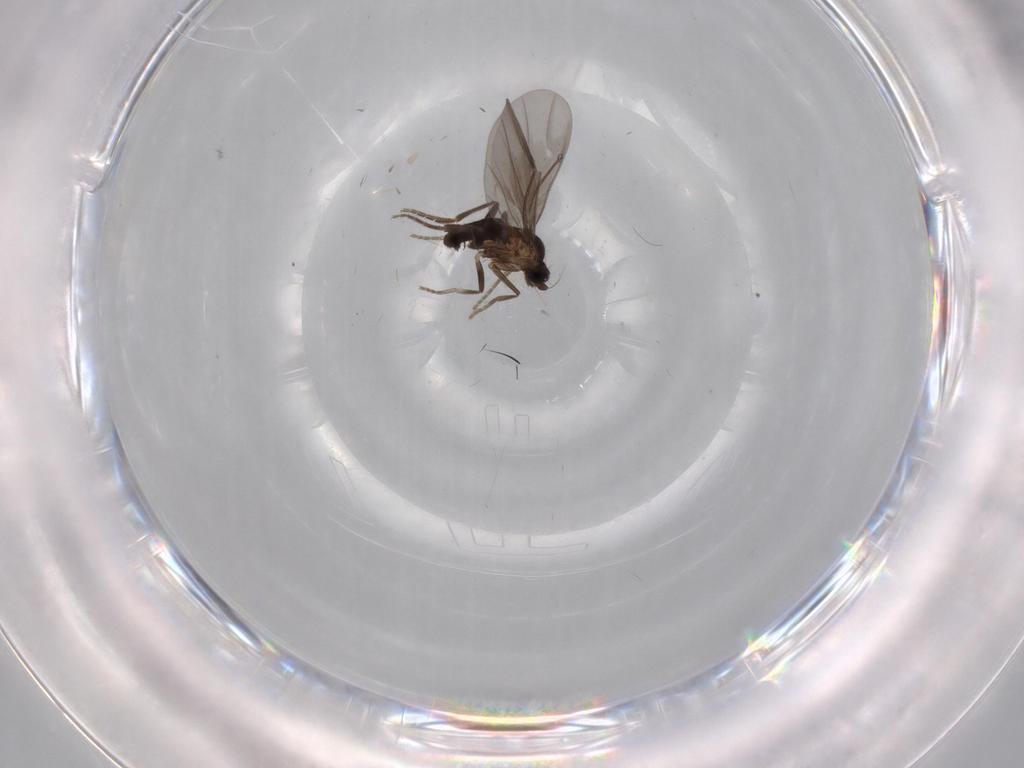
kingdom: Animalia
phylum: Arthropoda
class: Insecta
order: Diptera
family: Phoridae
